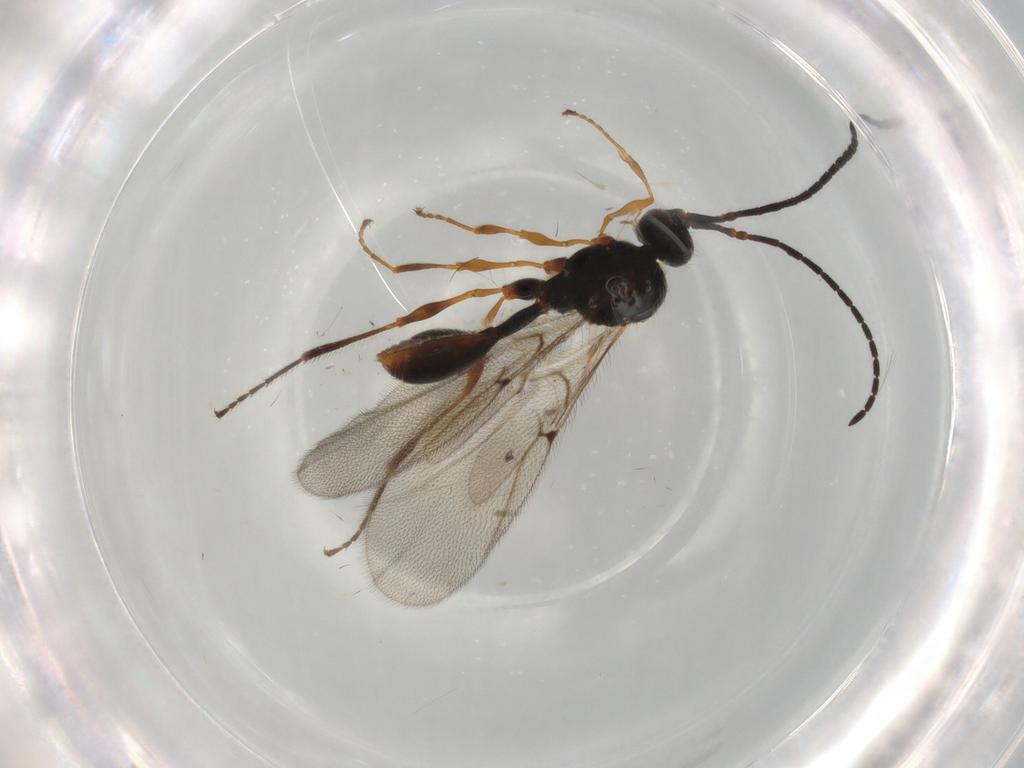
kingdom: Animalia
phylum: Arthropoda
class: Insecta
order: Hymenoptera
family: Diapriidae
